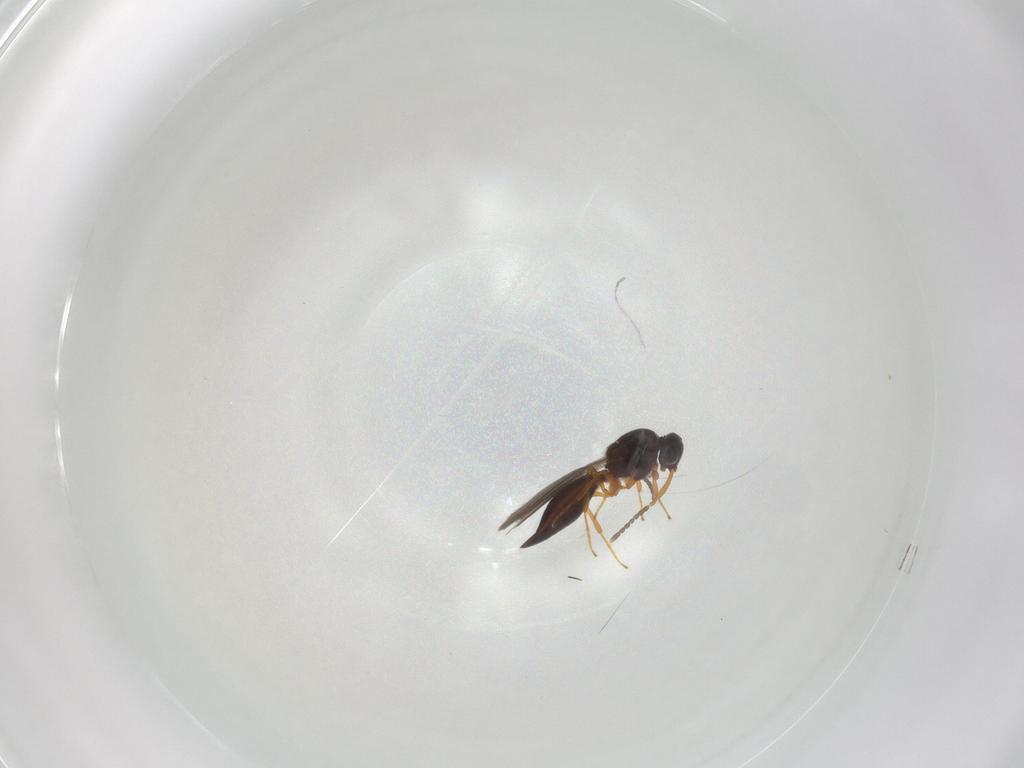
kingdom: Animalia
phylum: Arthropoda
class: Insecta
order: Hymenoptera
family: Platygastridae
